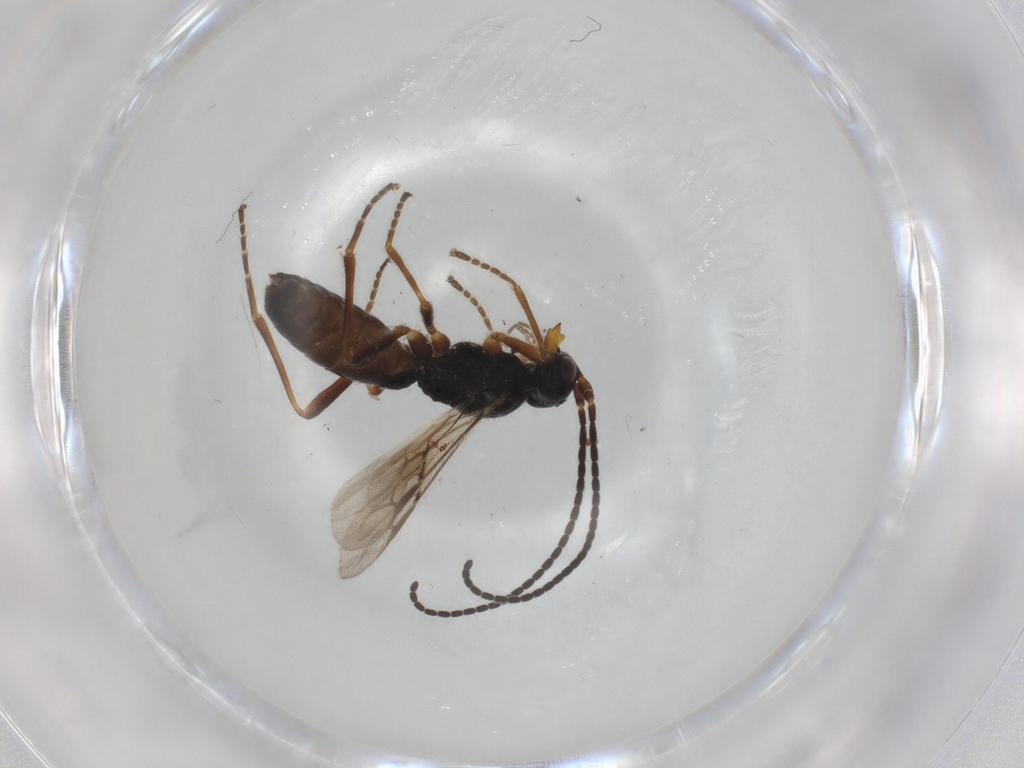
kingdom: Animalia
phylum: Arthropoda
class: Insecta
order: Hymenoptera
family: Braconidae
